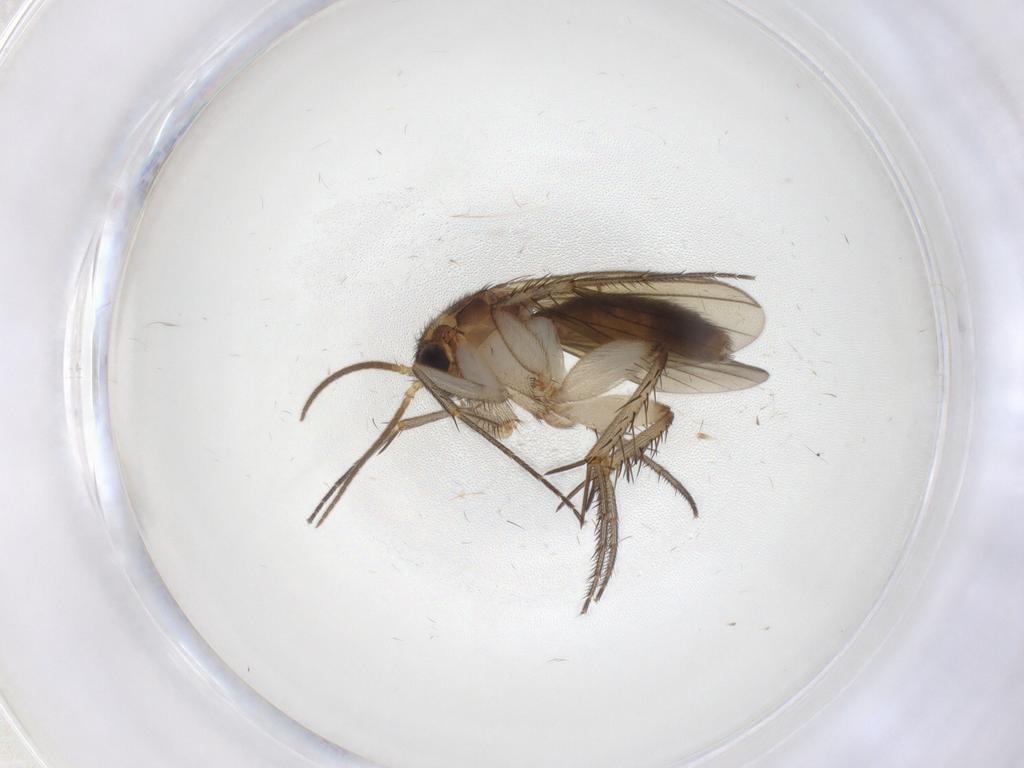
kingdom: Animalia
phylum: Arthropoda
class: Insecta
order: Diptera
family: Mycetophilidae
